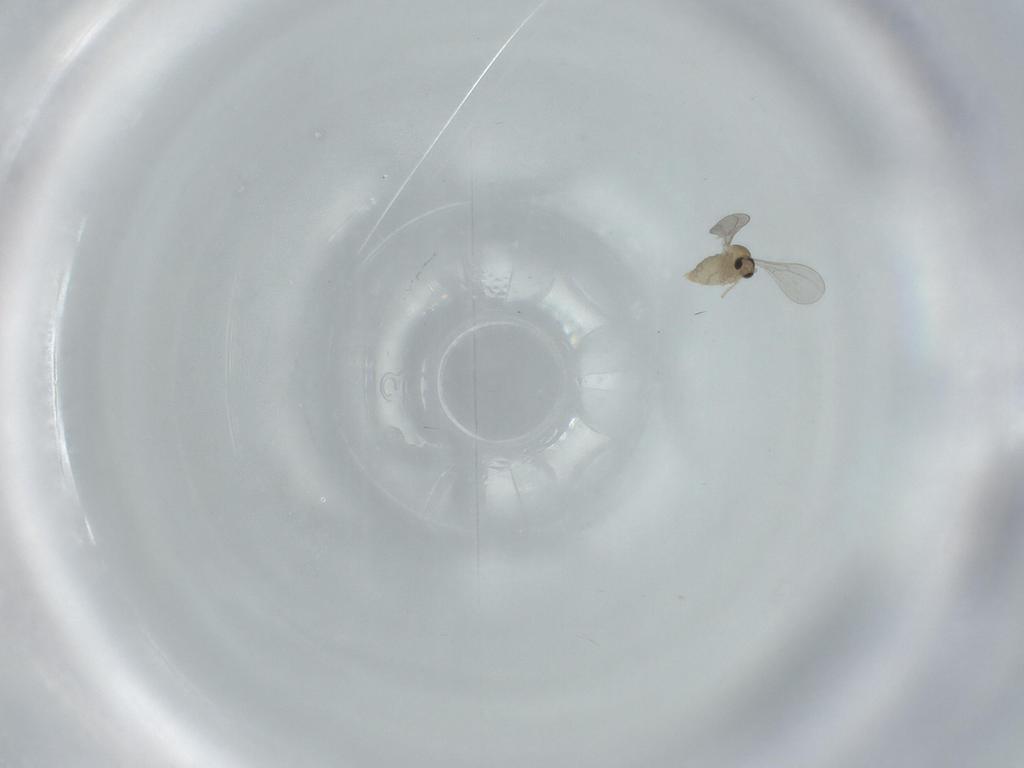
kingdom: Animalia
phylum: Arthropoda
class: Insecta
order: Diptera
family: Cecidomyiidae
